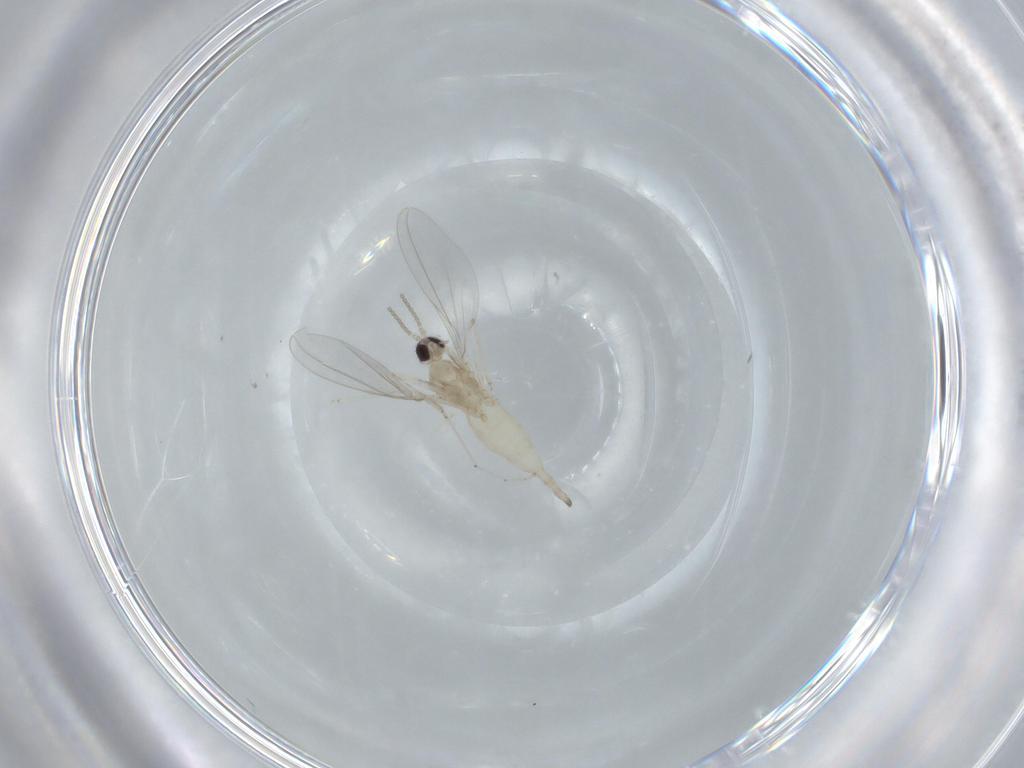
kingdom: Animalia
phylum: Arthropoda
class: Insecta
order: Diptera
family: Cecidomyiidae
